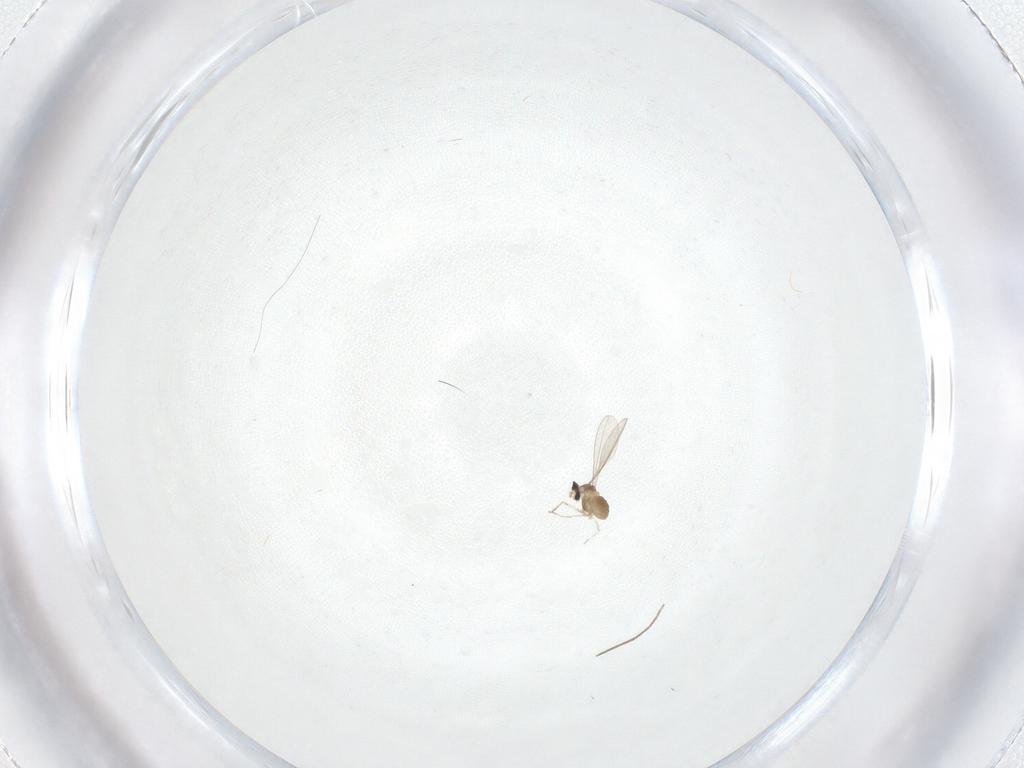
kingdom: Animalia
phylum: Arthropoda
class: Insecta
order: Diptera
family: Cecidomyiidae
